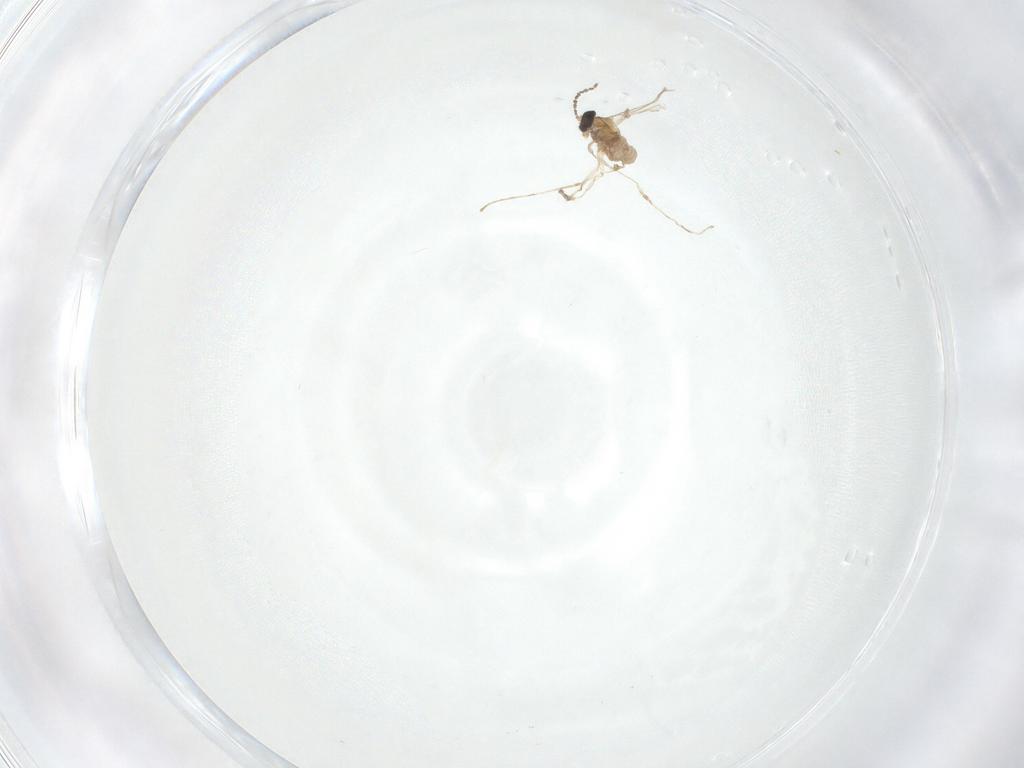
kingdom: Animalia
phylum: Arthropoda
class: Insecta
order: Diptera
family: Cecidomyiidae
